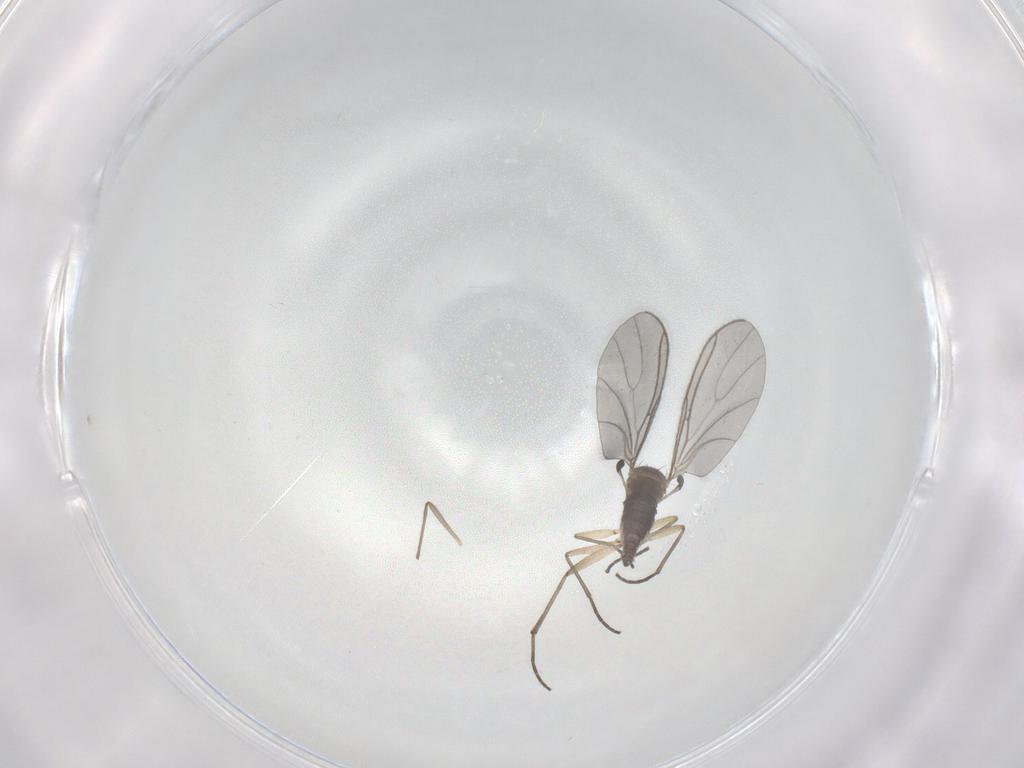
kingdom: Animalia
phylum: Arthropoda
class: Insecta
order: Diptera
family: Sciaridae
